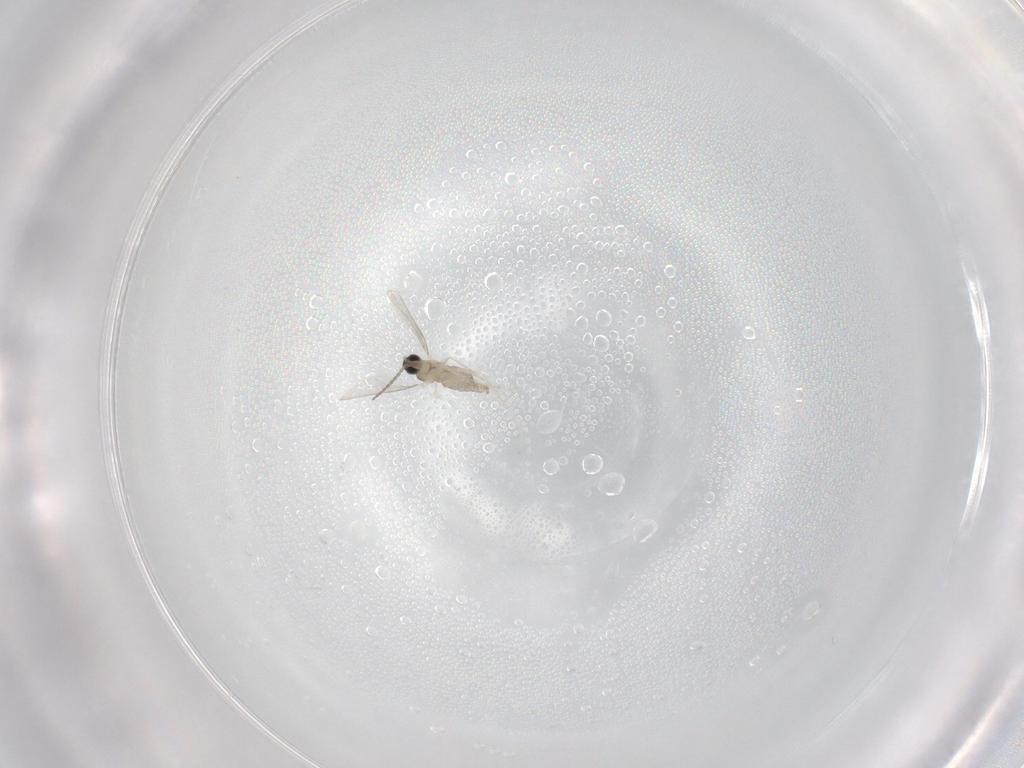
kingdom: Animalia
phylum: Arthropoda
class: Insecta
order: Diptera
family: Cecidomyiidae
